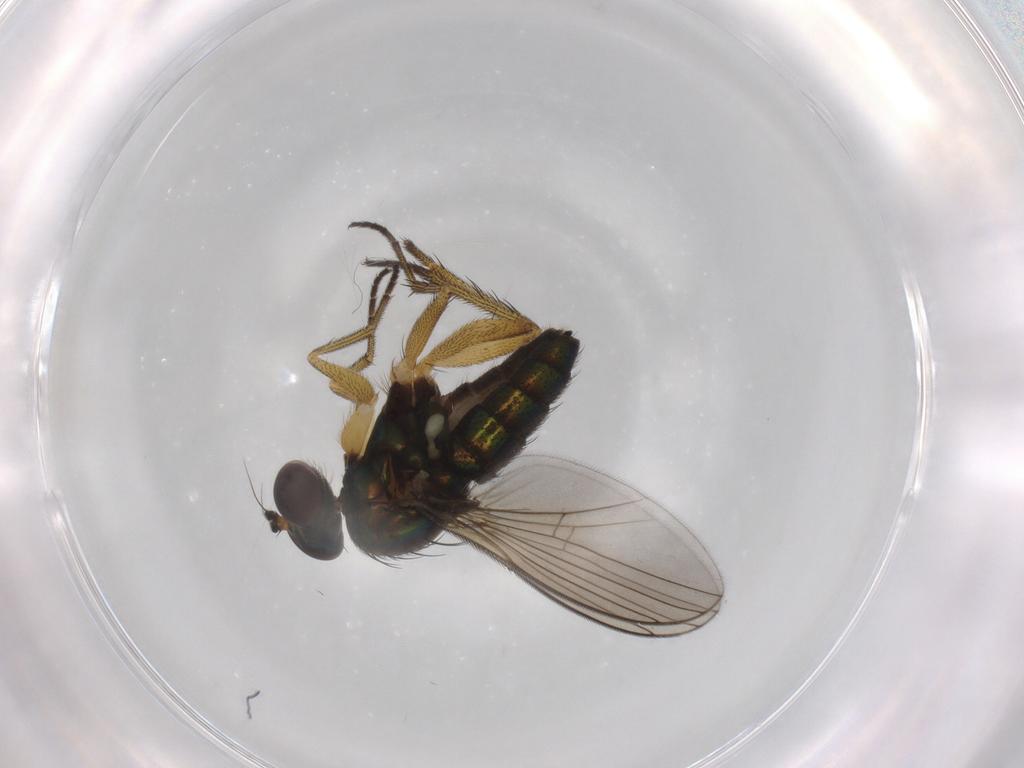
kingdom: Animalia
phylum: Arthropoda
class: Insecta
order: Diptera
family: Dolichopodidae
